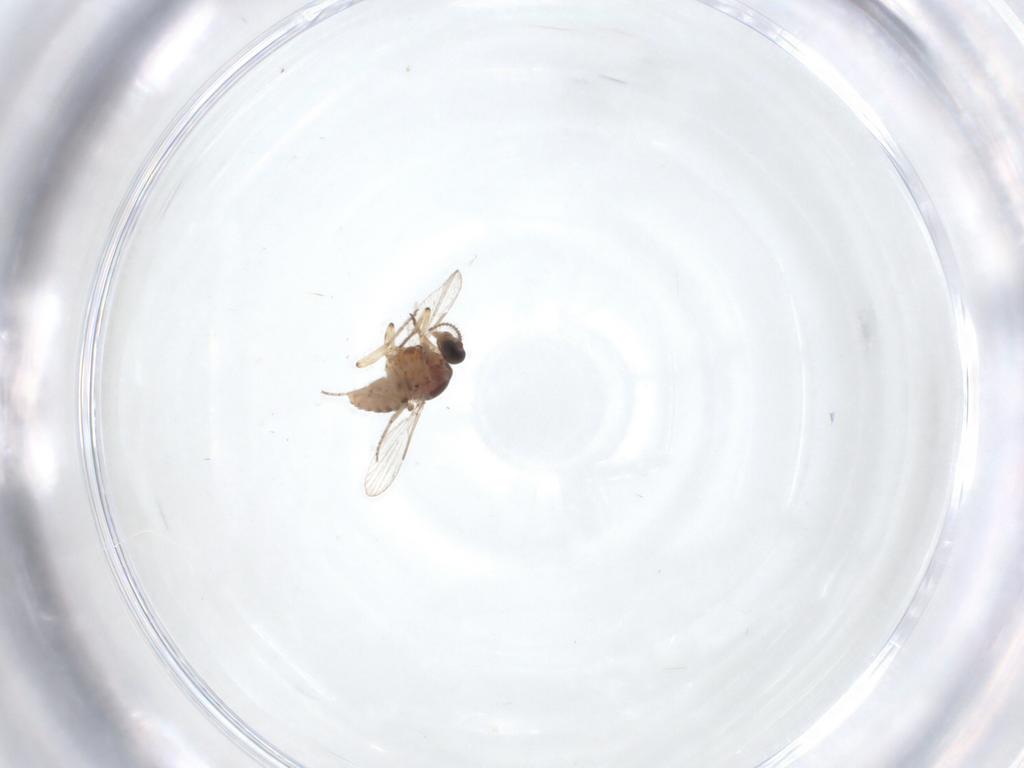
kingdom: Animalia
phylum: Arthropoda
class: Insecta
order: Diptera
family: Ceratopogonidae
